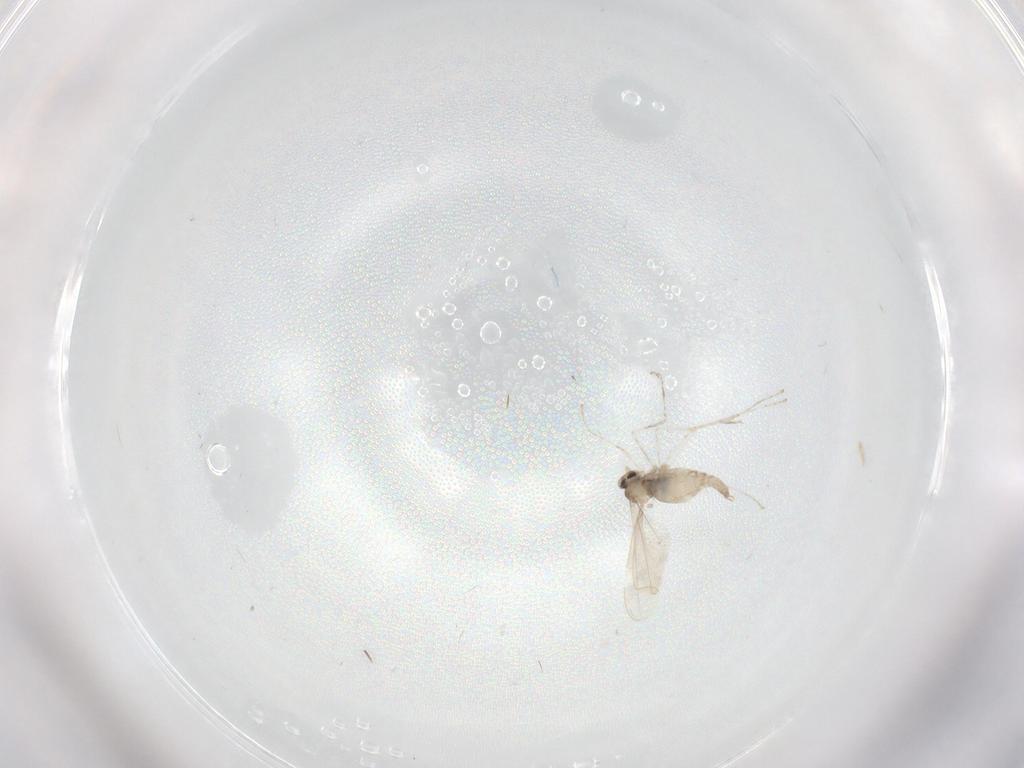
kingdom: Animalia
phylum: Arthropoda
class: Insecta
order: Diptera
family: Cecidomyiidae
